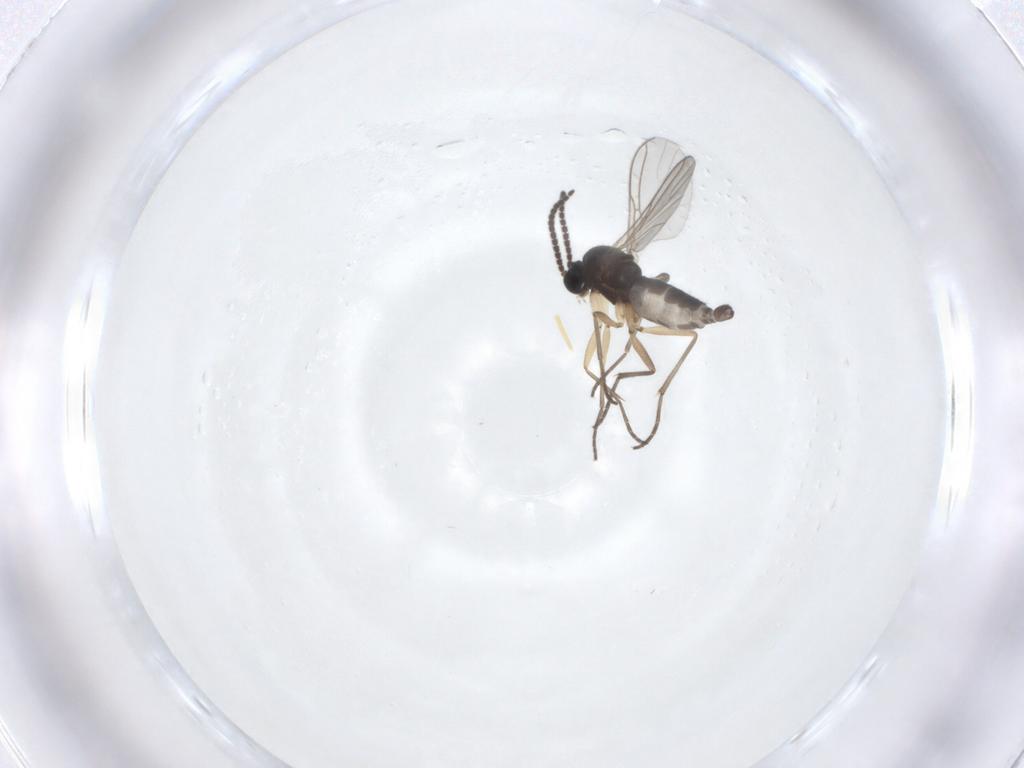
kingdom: Animalia
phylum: Arthropoda
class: Insecta
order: Diptera
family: Sciaridae
